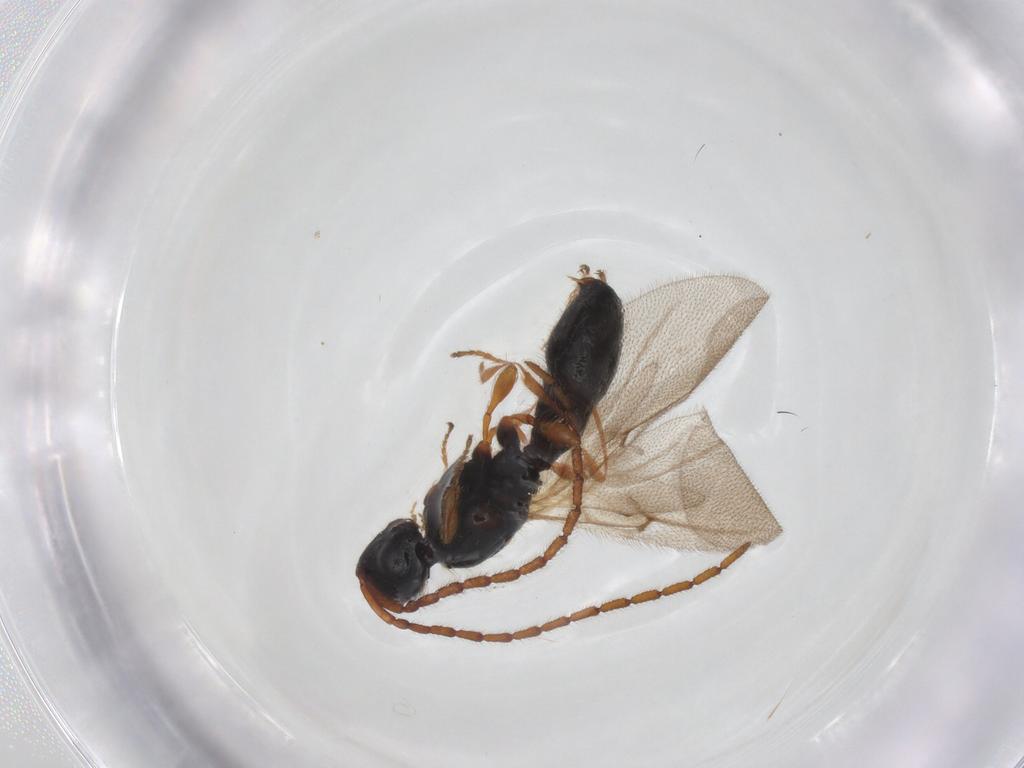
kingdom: Animalia
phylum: Arthropoda
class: Insecta
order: Hymenoptera
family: Diapriidae
